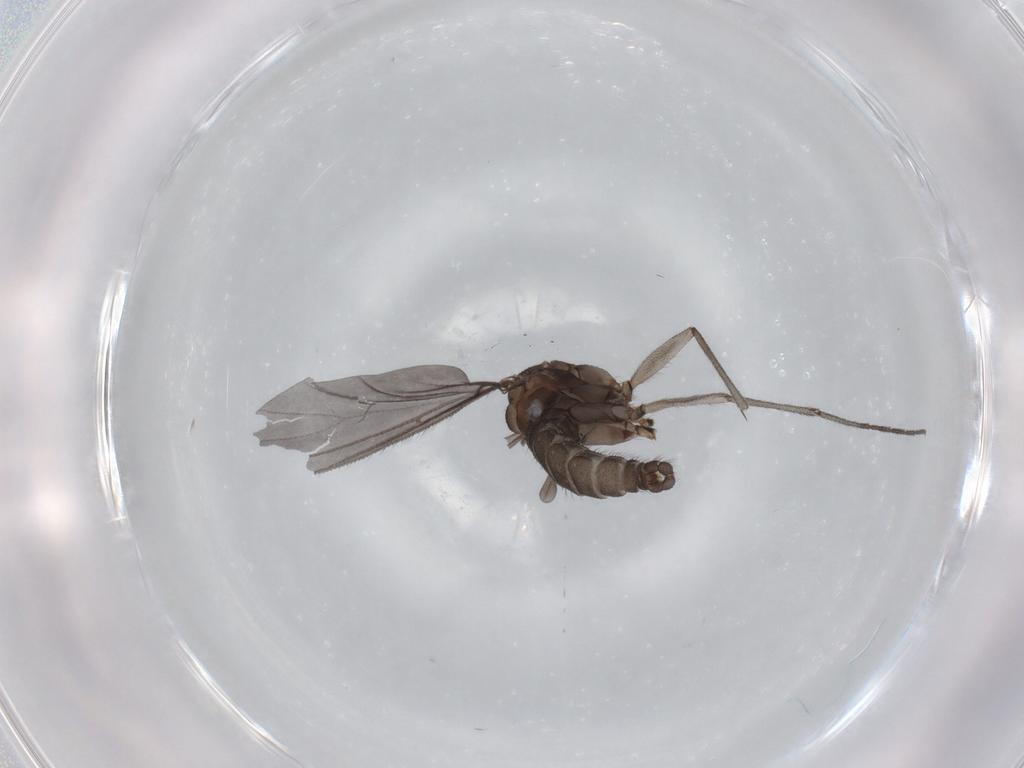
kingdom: Animalia
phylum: Arthropoda
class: Insecta
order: Diptera
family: Sciaridae
